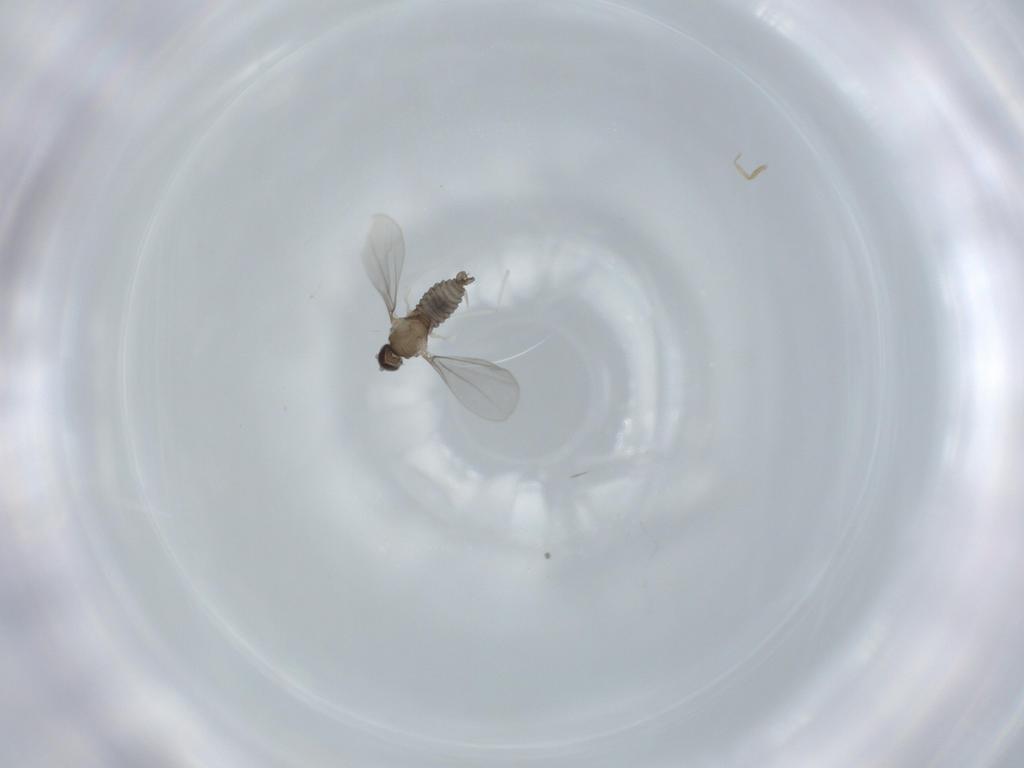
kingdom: Animalia
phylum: Arthropoda
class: Insecta
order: Diptera
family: Cecidomyiidae
